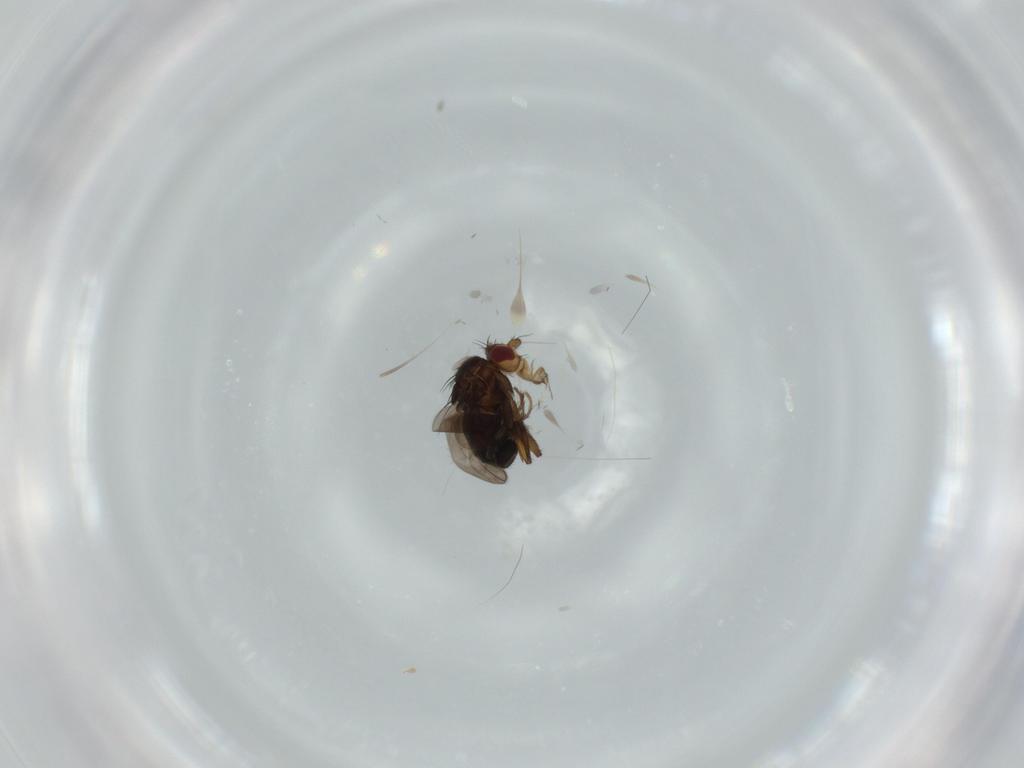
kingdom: Animalia
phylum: Arthropoda
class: Insecta
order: Diptera
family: Sciaridae
